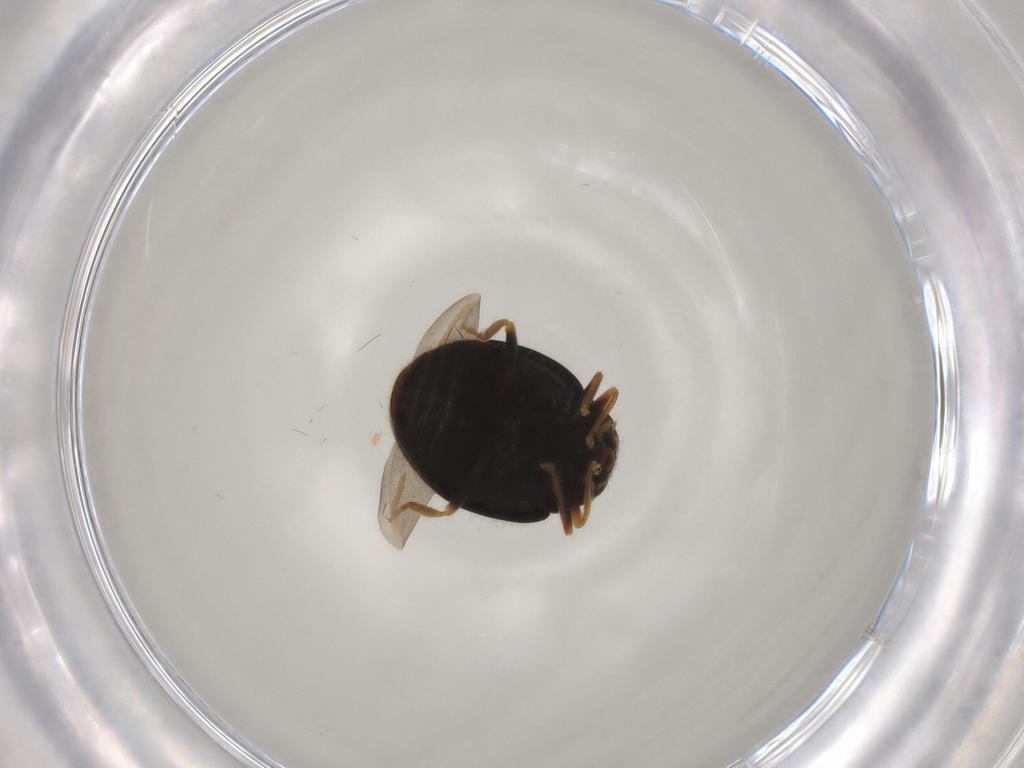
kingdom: Animalia
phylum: Arthropoda
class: Insecta
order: Coleoptera
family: Coccinellidae
